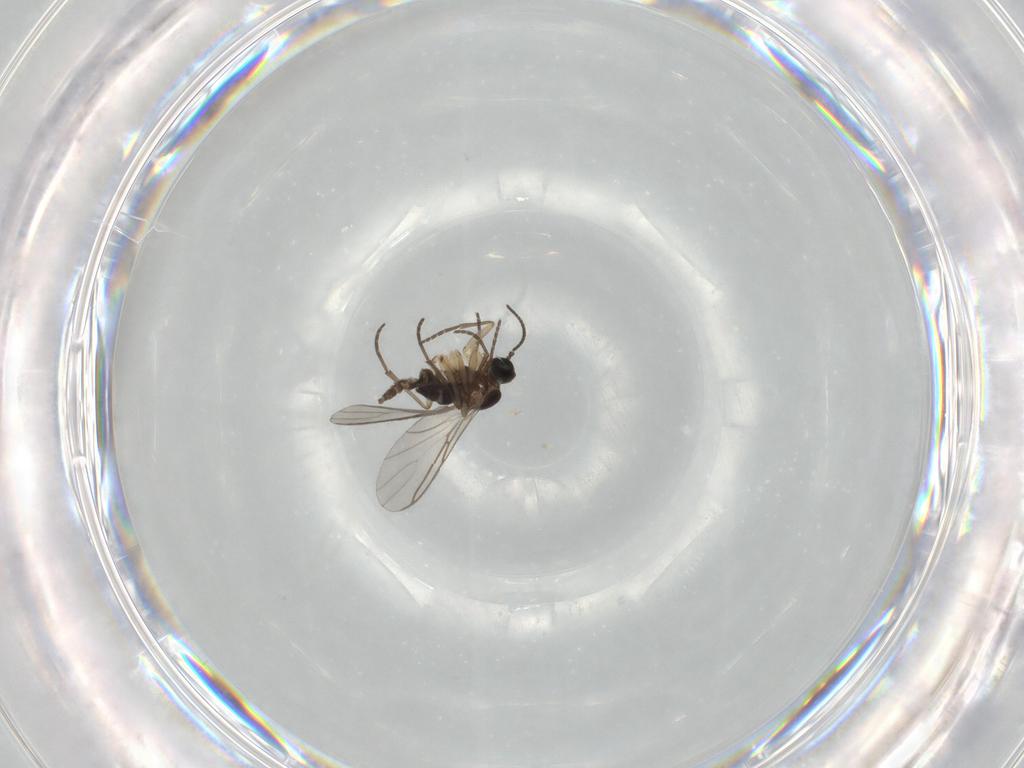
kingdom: Animalia
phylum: Arthropoda
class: Insecta
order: Diptera
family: Sciaridae
